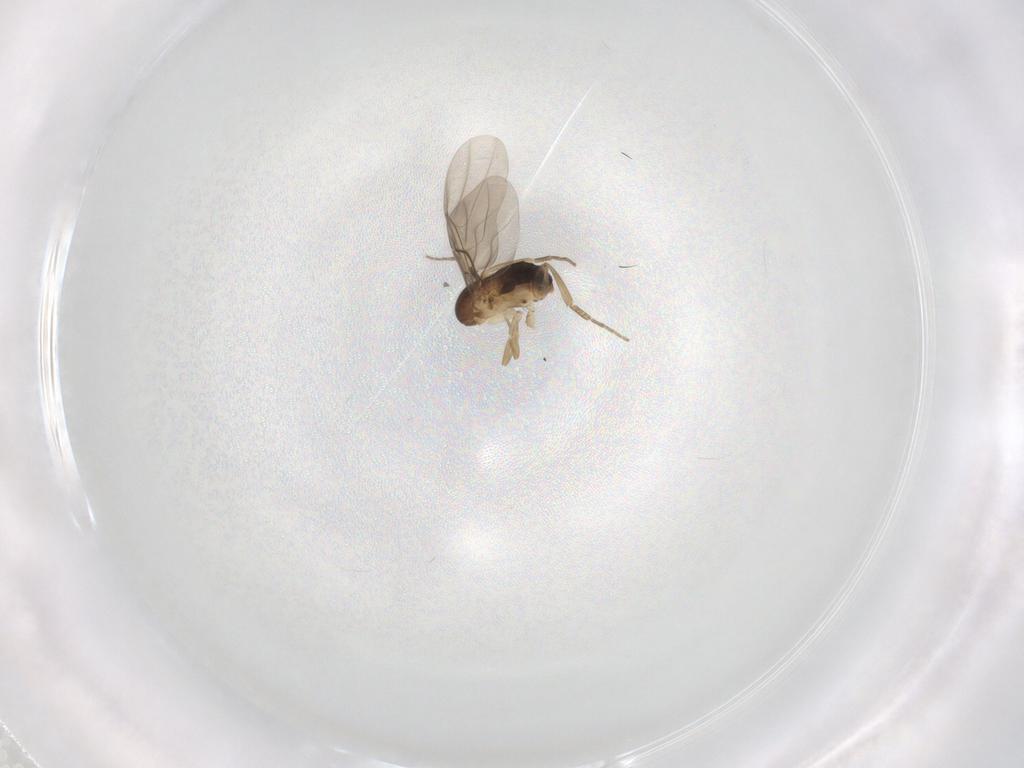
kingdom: Animalia
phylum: Arthropoda
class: Insecta
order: Diptera
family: Phoridae
